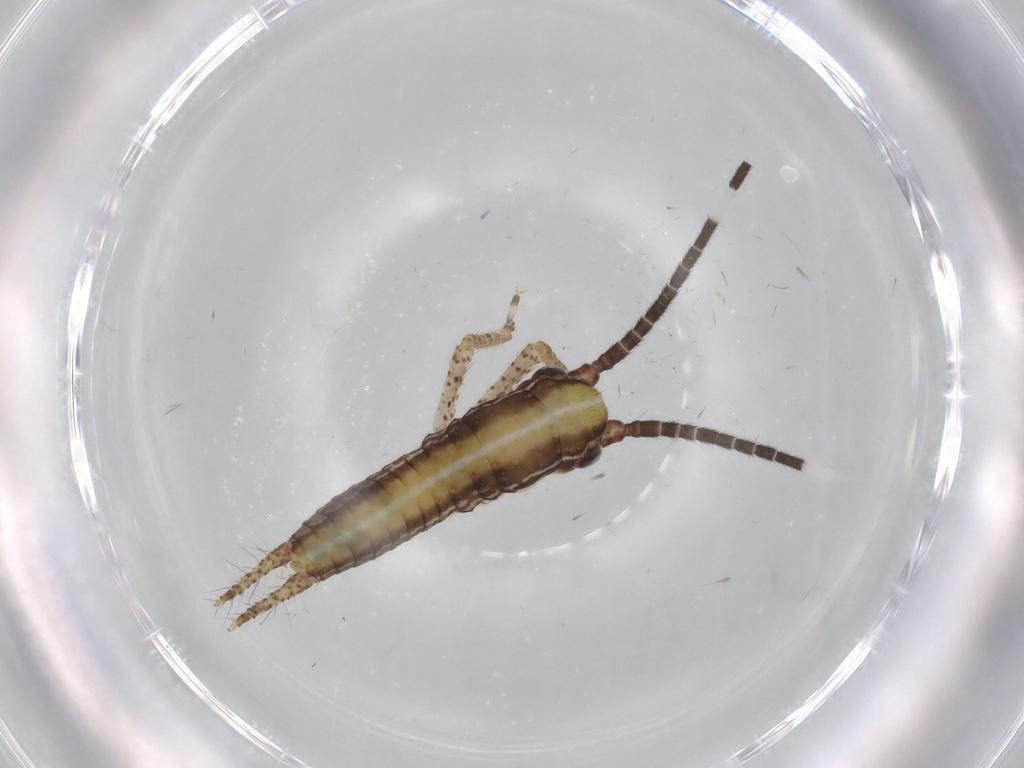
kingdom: Animalia
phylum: Arthropoda
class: Insecta
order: Orthoptera
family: Gryllidae
